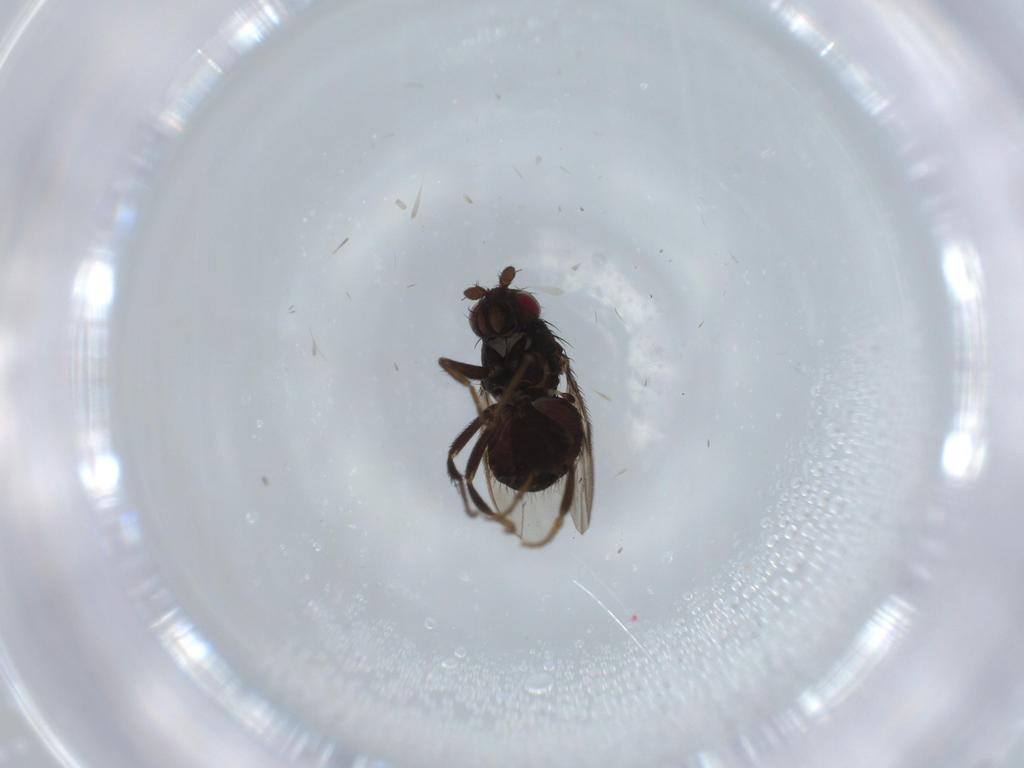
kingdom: Animalia
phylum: Arthropoda
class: Insecta
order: Diptera
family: Sphaeroceridae
